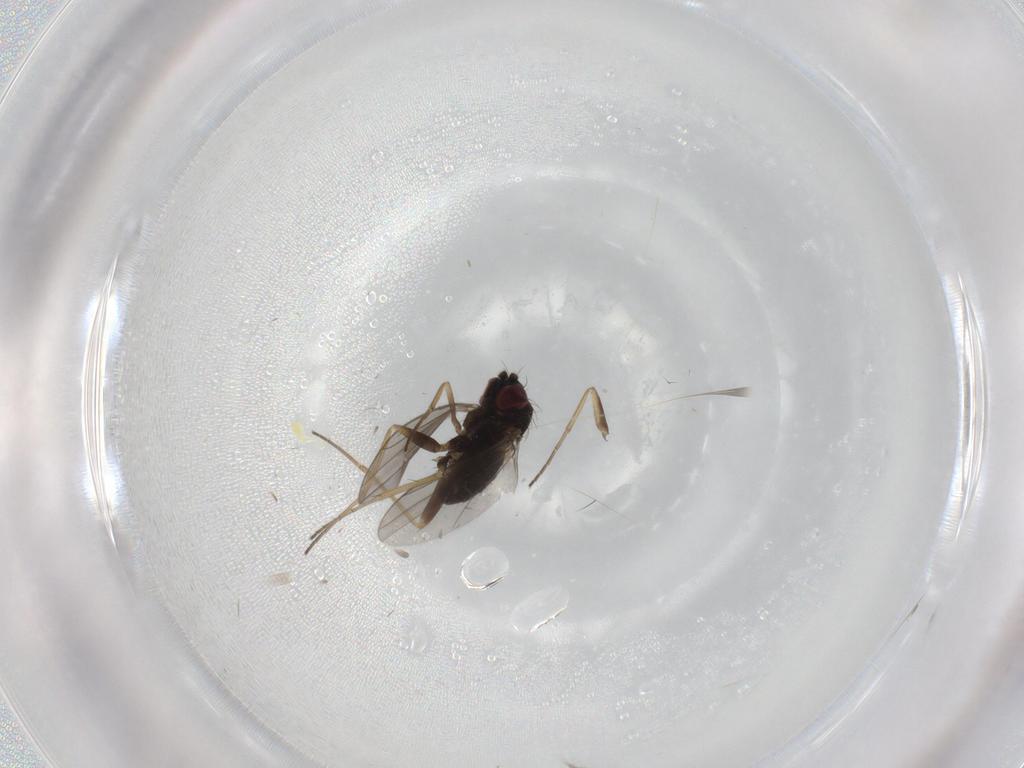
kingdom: Animalia
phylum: Arthropoda
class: Insecta
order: Diptera
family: Dolichopodidae
